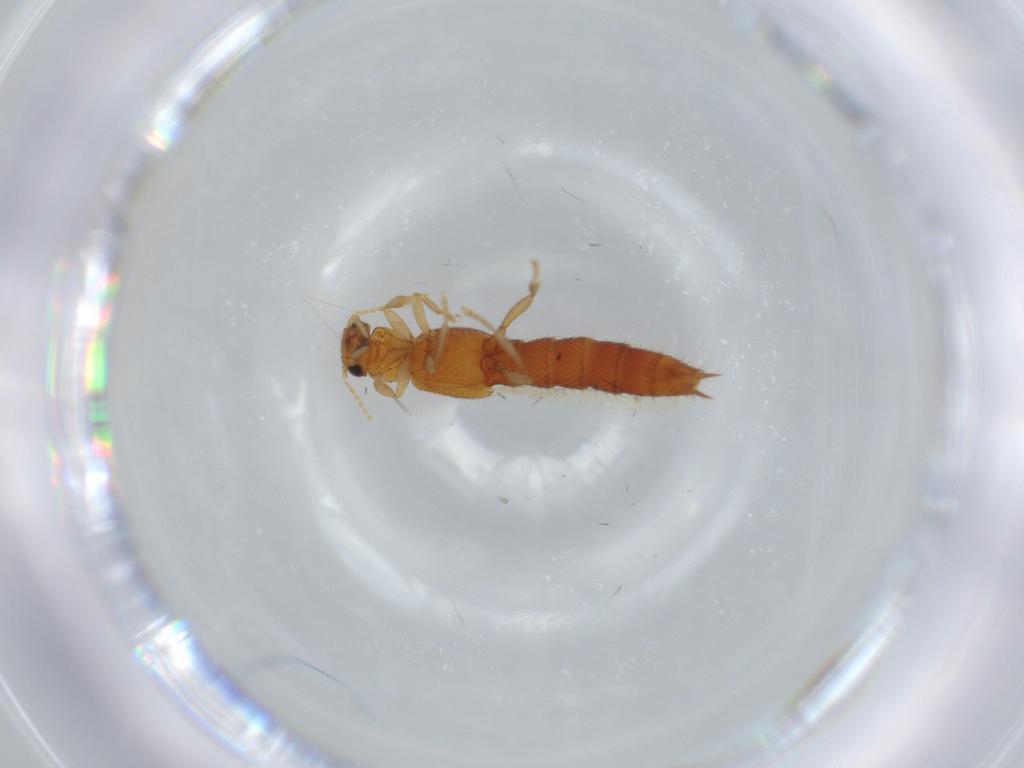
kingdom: Animalia
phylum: Arthropoda
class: Insecta
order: Coleoptera
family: Staphylinidae
